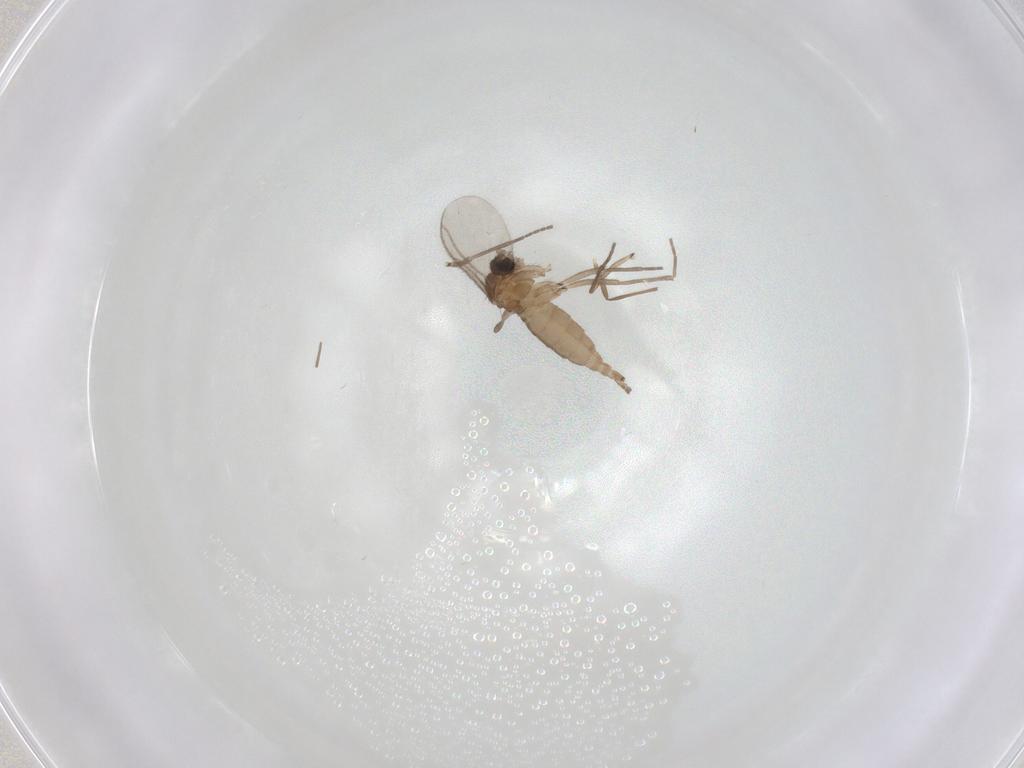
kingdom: Animalia
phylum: Arthropoda
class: Insecta
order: Diptera
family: Sciaridae
